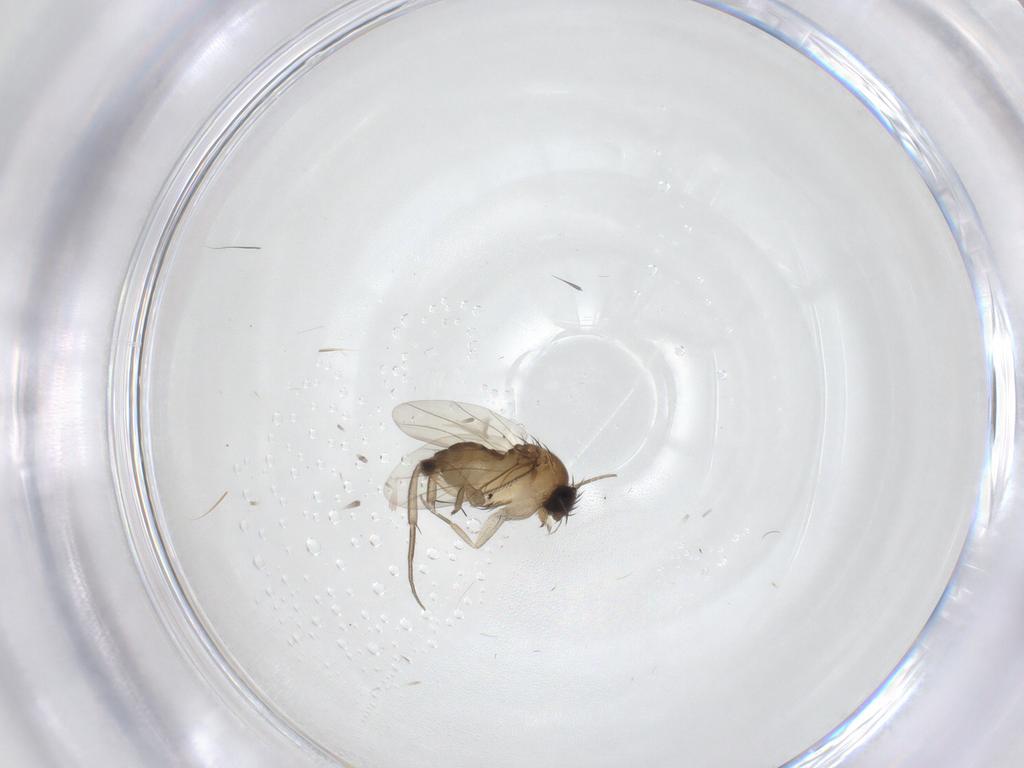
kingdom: Animalia
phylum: Arthropoda
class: Insecta
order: Diptera
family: Phoridae
